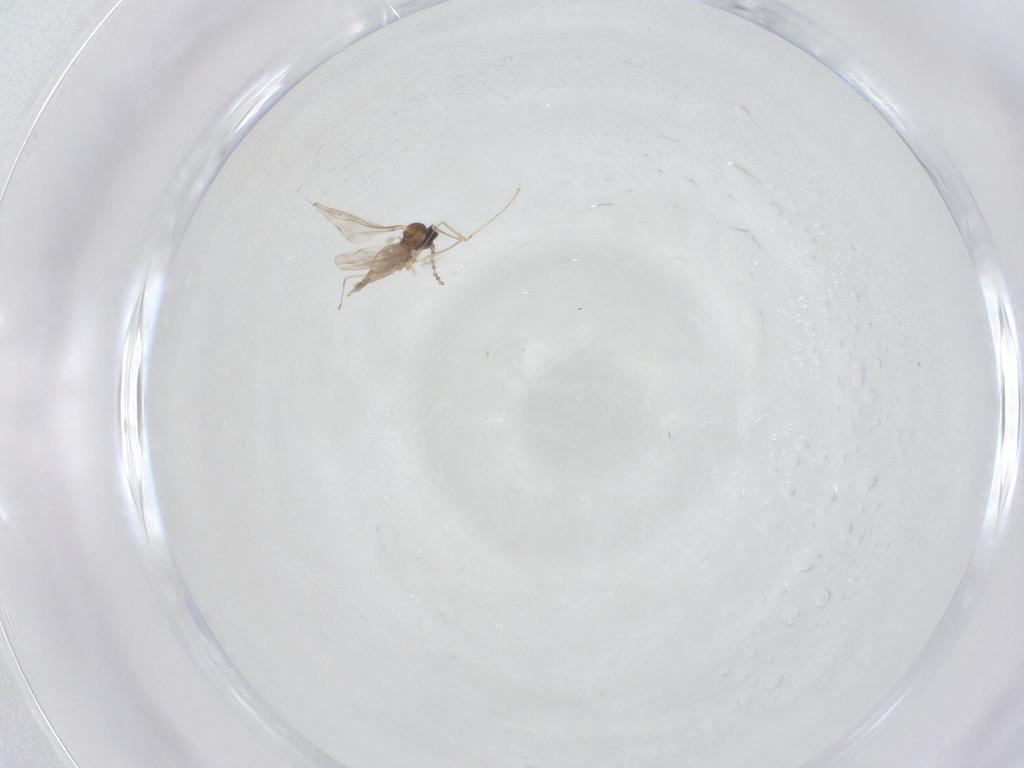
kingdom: Animalia
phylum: Arthropoda
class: Insecta
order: Diptera
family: Cecidomyiidae
